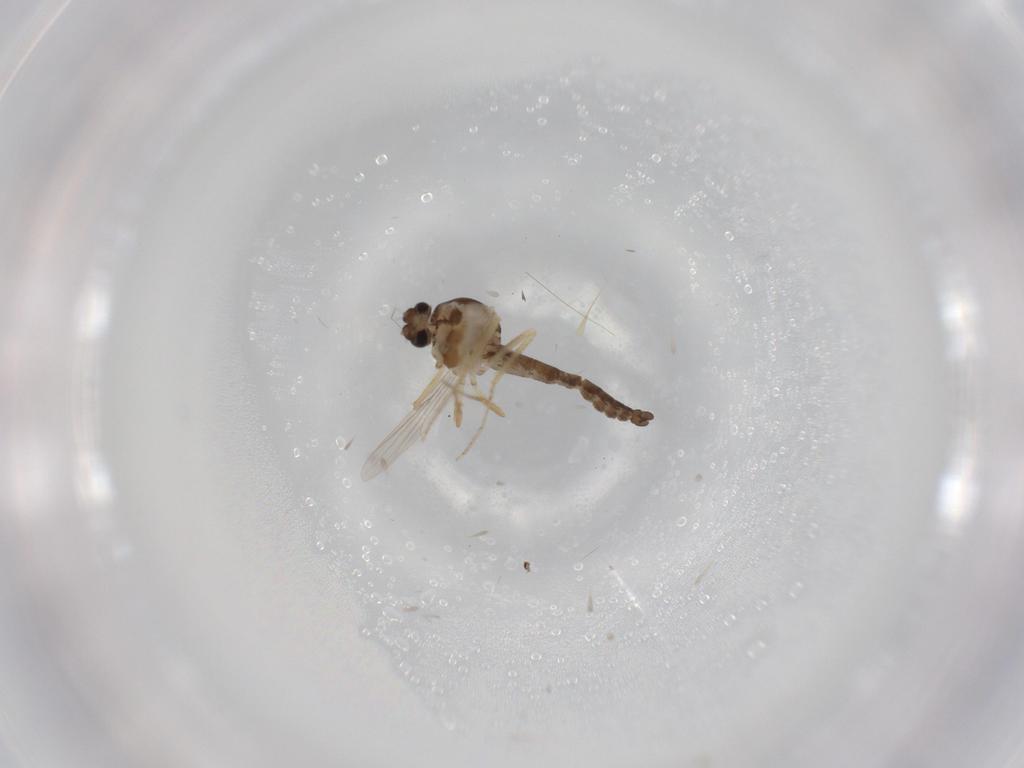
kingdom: Animalia
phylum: Arthropoda
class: Insecta
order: Diptera
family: Ceratopogonidae
